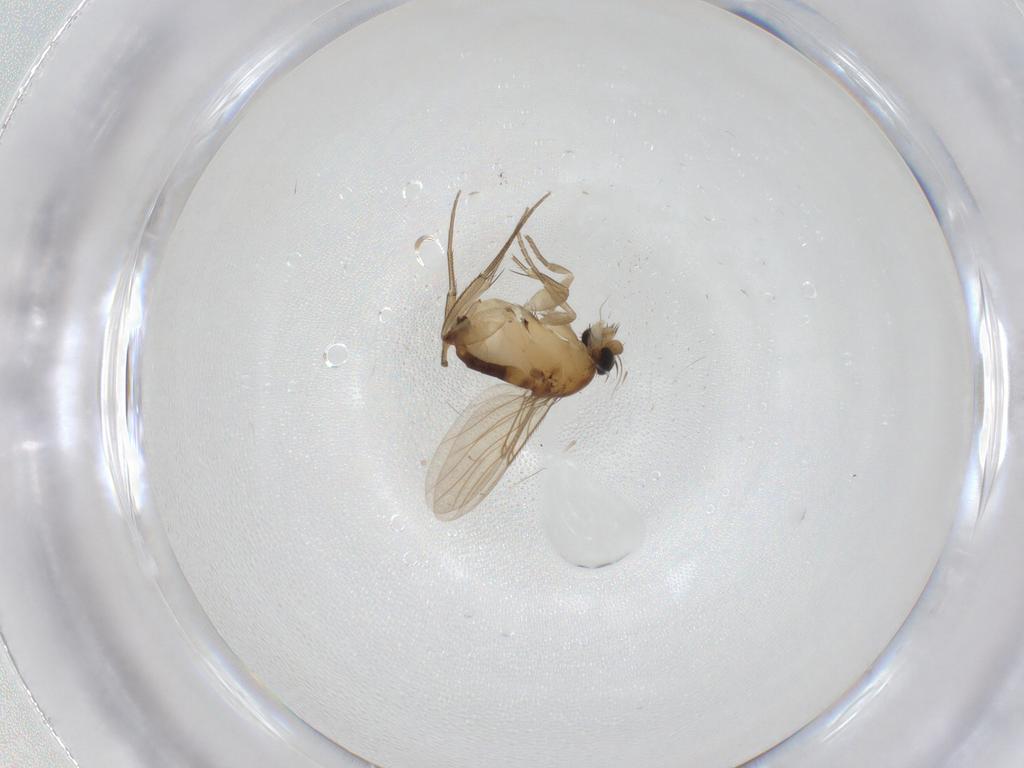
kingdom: Animalia
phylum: Arthropoda
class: Insecta
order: Diptera
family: Phoridae
